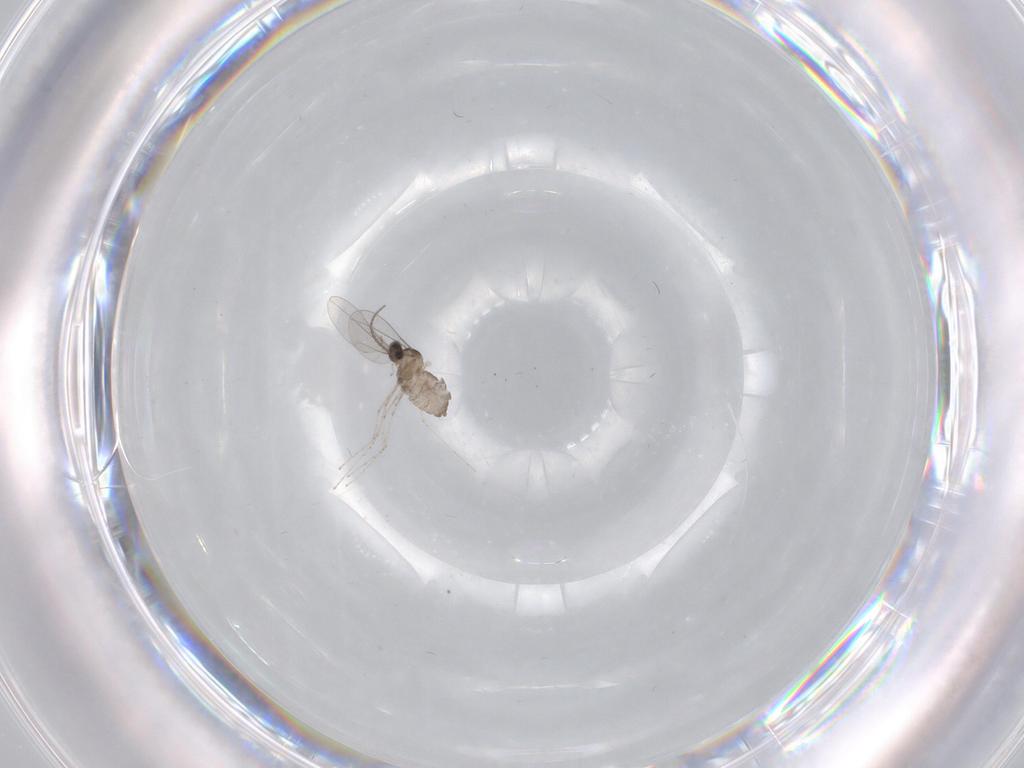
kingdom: Animalia
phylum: Arthropoda
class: Insecta
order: Diptera
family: Cecidomyiidae
